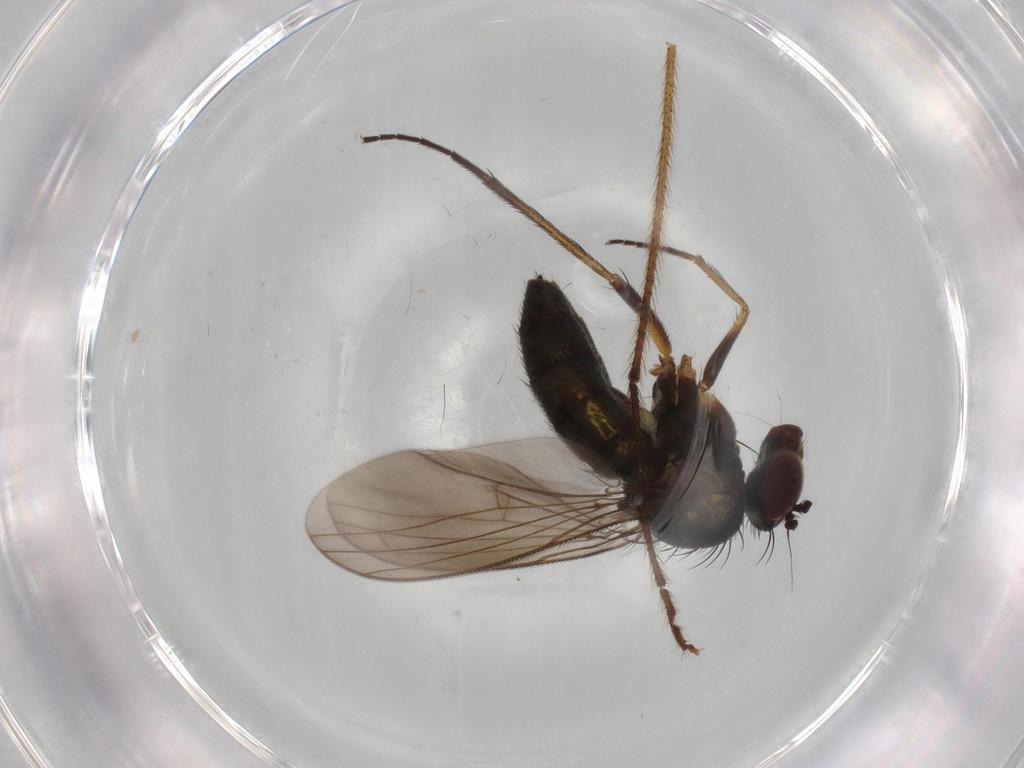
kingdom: Animalia
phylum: Arthropoda
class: Insecta
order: Diptera
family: Dolichopodidae
